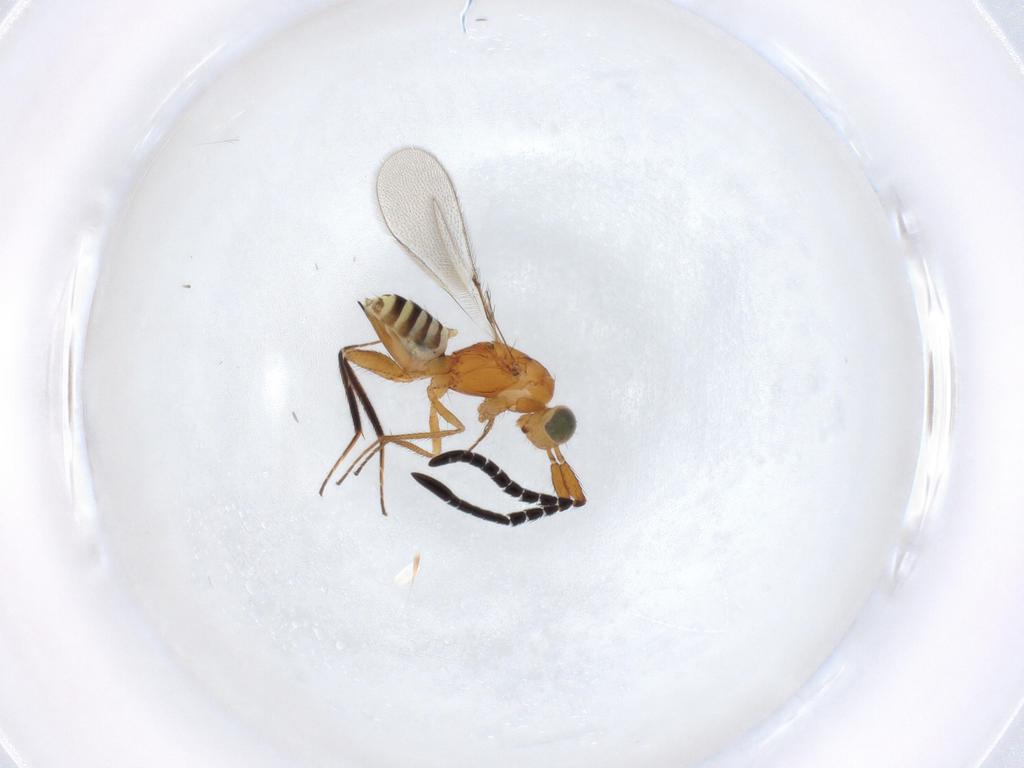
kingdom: Animalia
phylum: Arthropoda
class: Insecta
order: Hymenoptera
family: Mymaridae
